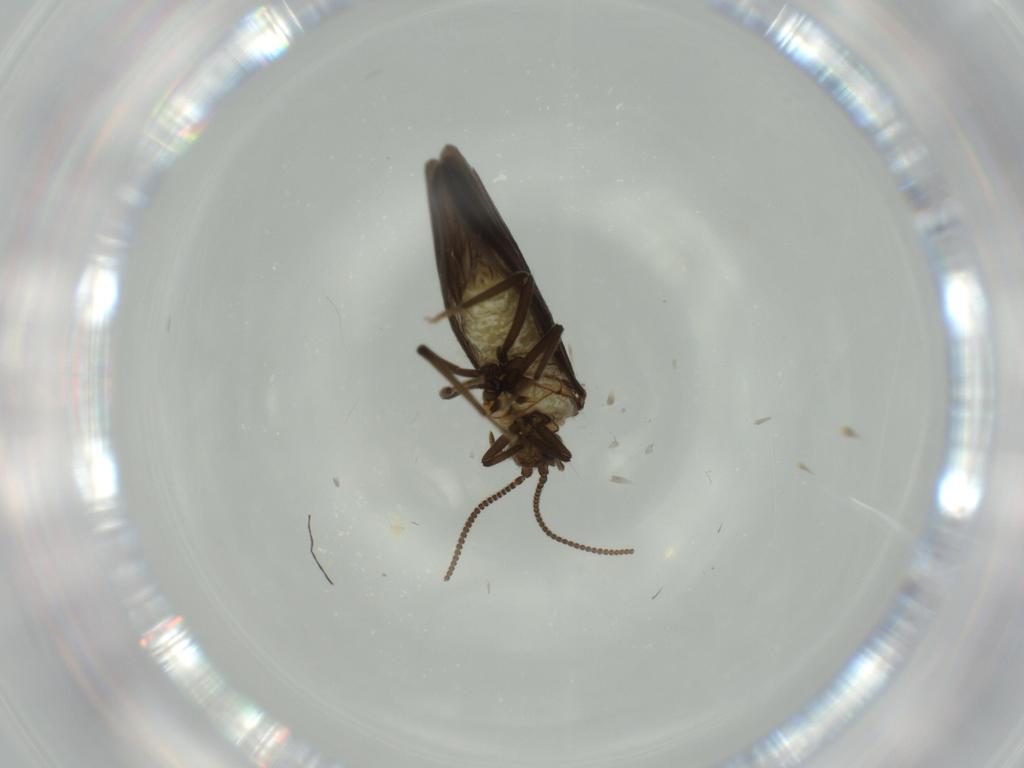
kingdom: Animalia
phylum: Arthropoda
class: Insecta
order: Neuroptera
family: Coniopterygidae
